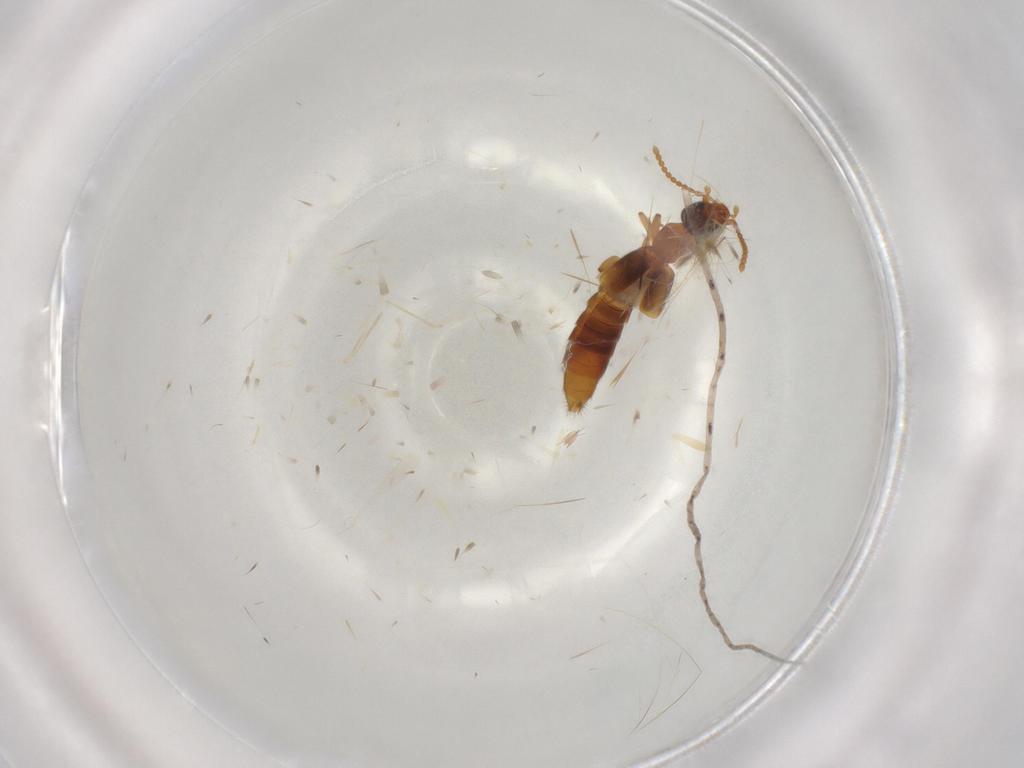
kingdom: Animalia
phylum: Arthropoda
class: Insecta
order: Coleoptera
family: Staphylinidae
